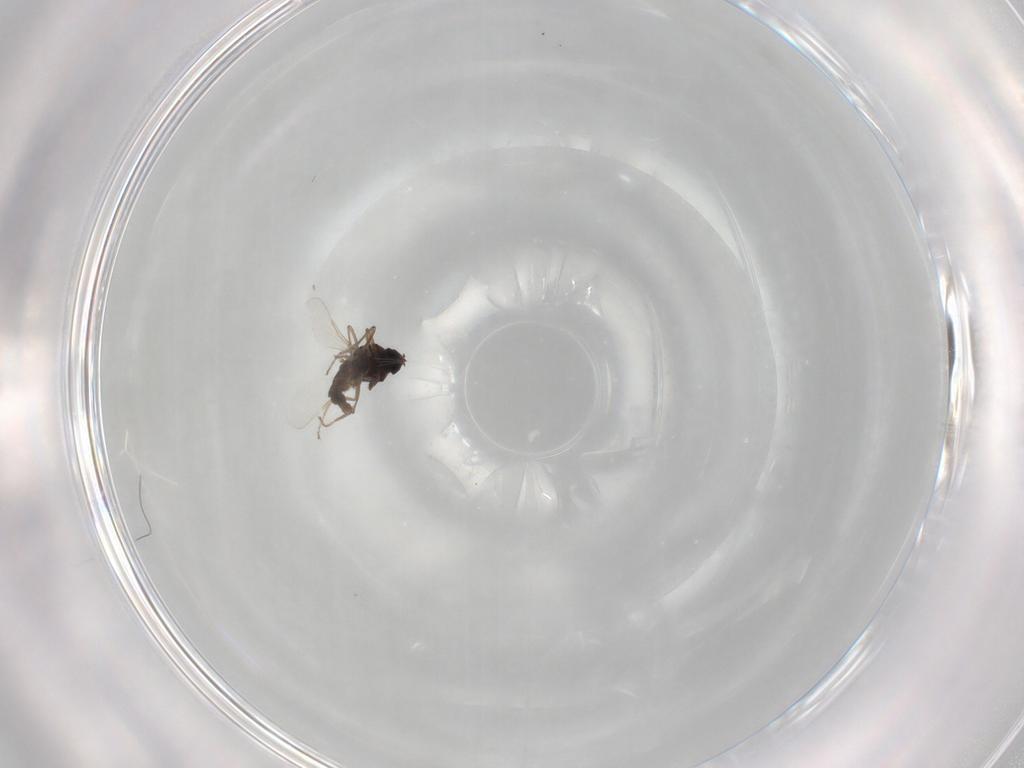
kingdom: Animalia
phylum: Arthropoda
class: Insecta
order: Diptera
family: Ceratopogonidae
